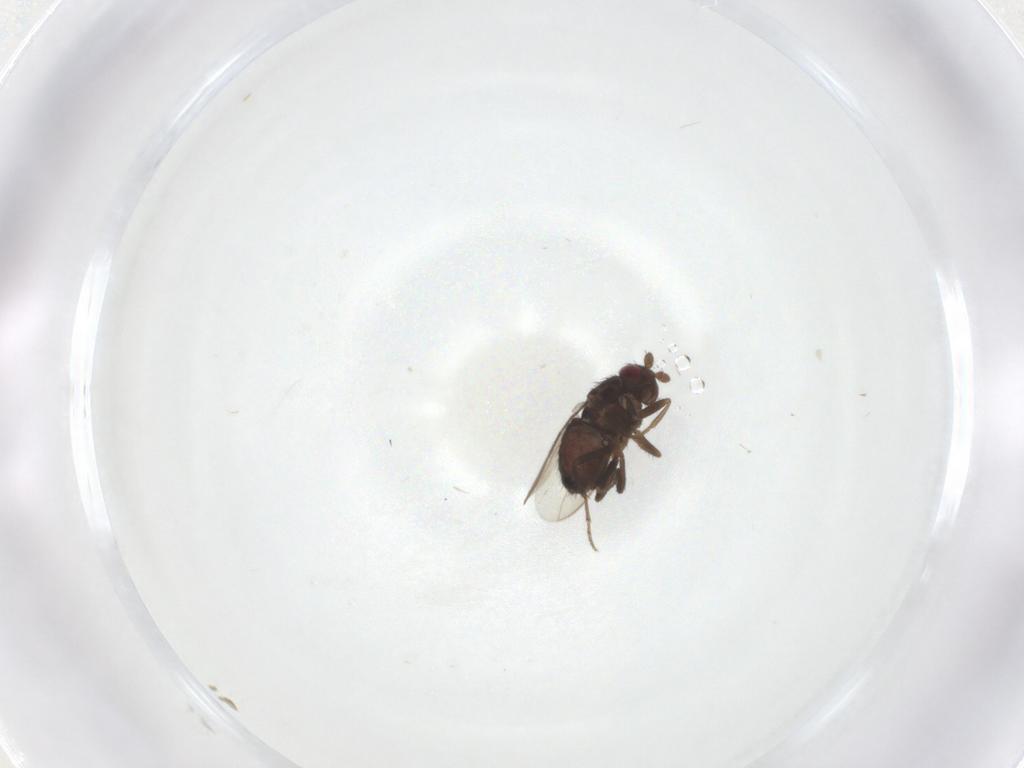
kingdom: Animalia
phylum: Arthropoda
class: Insecta
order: Diptera
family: Sphaeroceridae
